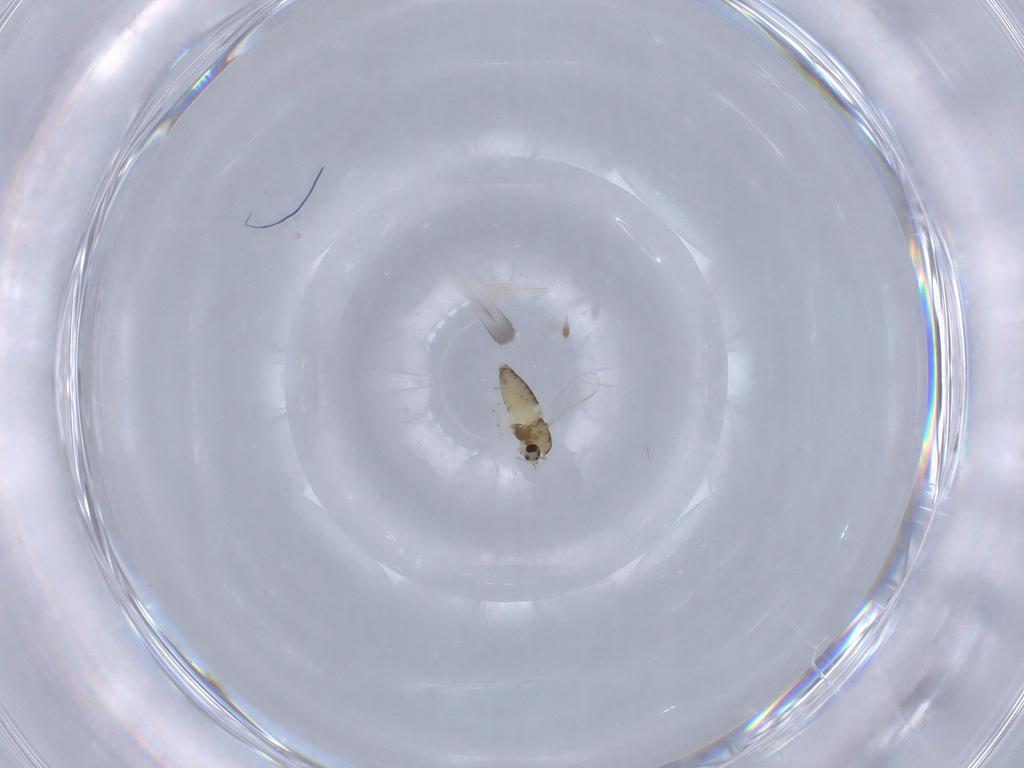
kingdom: Animalia
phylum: Arthropoda
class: Insecta
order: Diptera
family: Chironomidae
